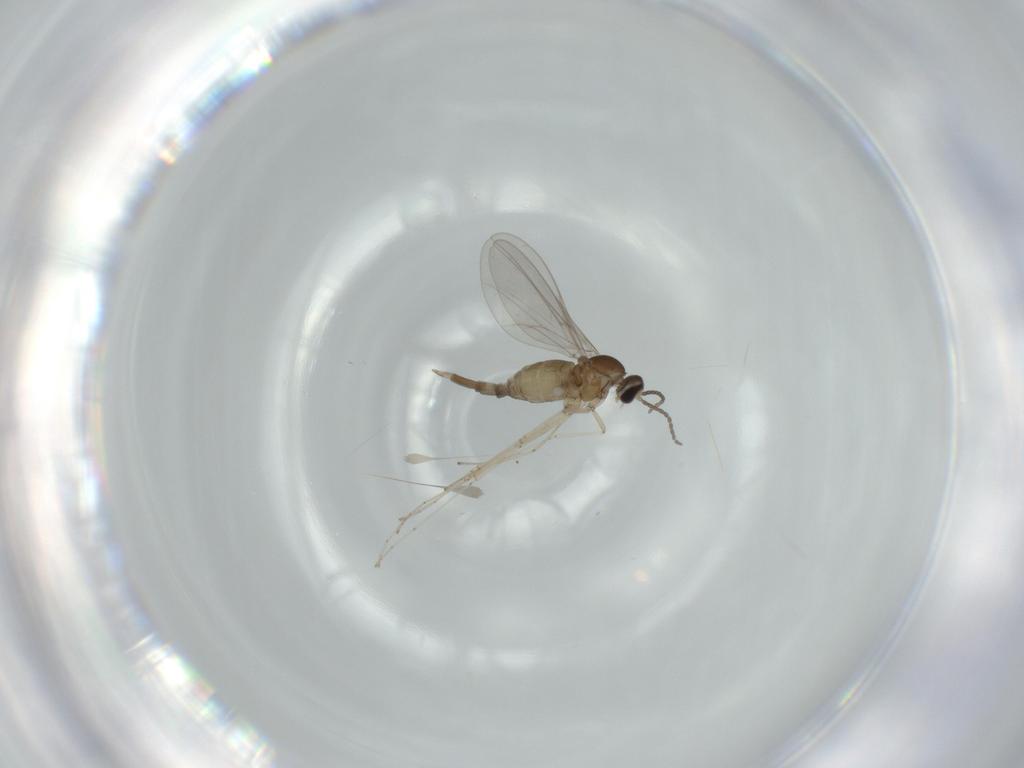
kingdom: Animalia
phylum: Arthropoda
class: Insecta
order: Diptera
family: Cecidomyiidae
